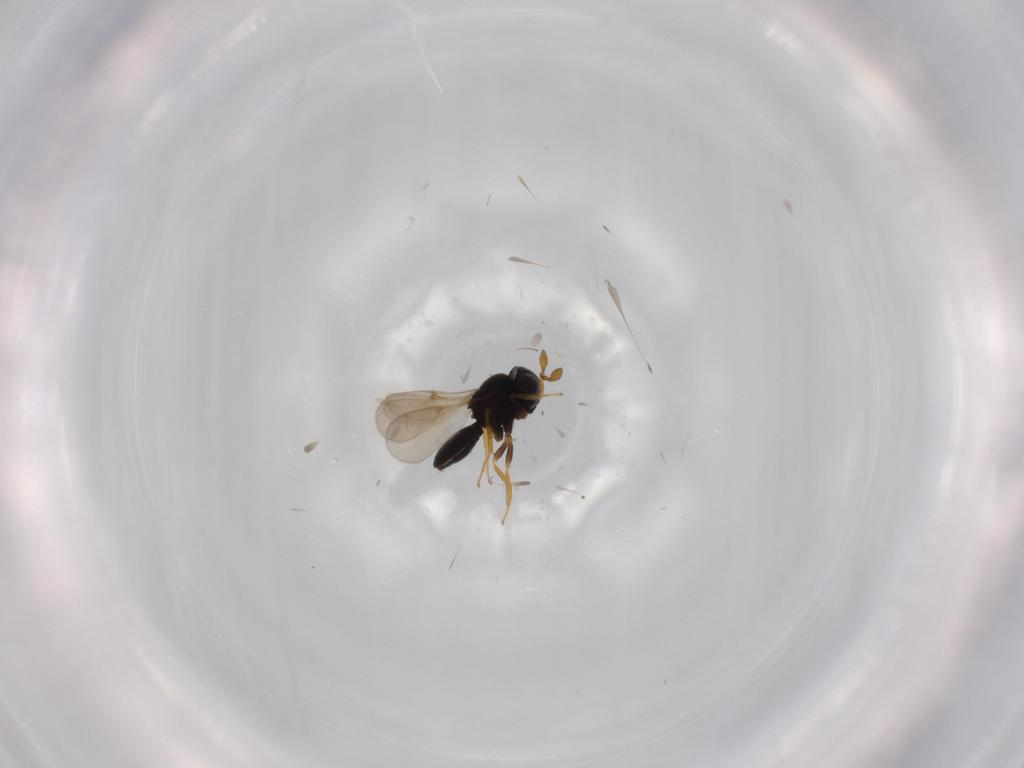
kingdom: Animalia
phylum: Arthropoda
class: Insecta
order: Hymenoptera
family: Scelionidae
